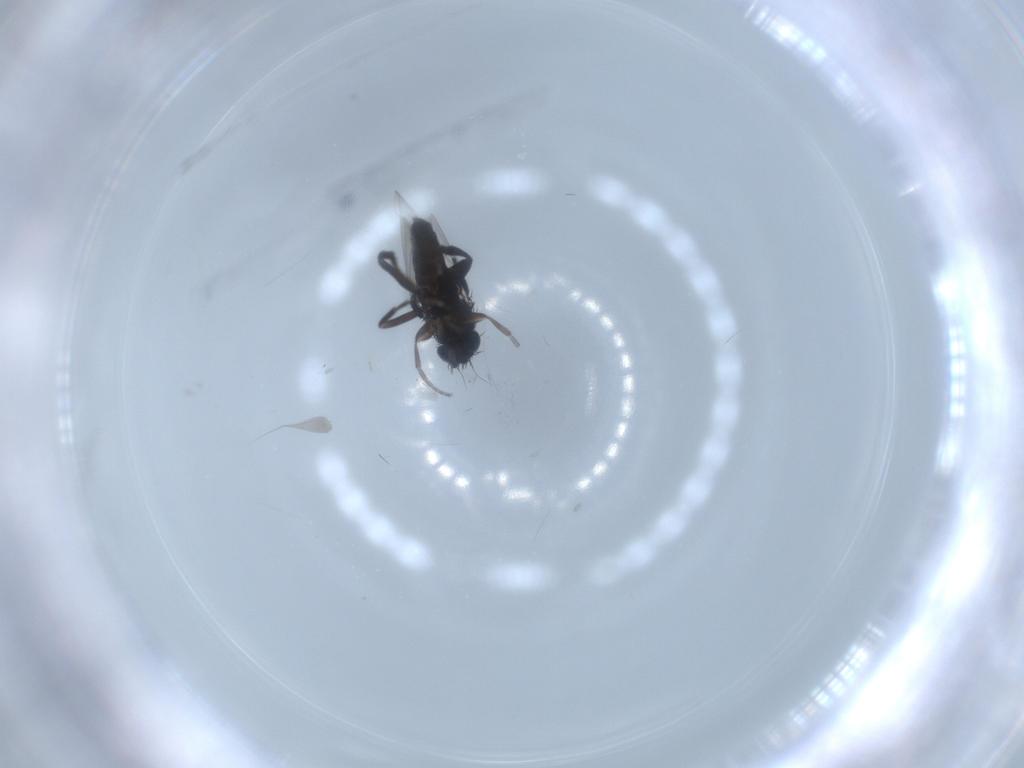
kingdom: Animalia
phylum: Arthropoda
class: Insecta
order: Diptera
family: Phoridae
